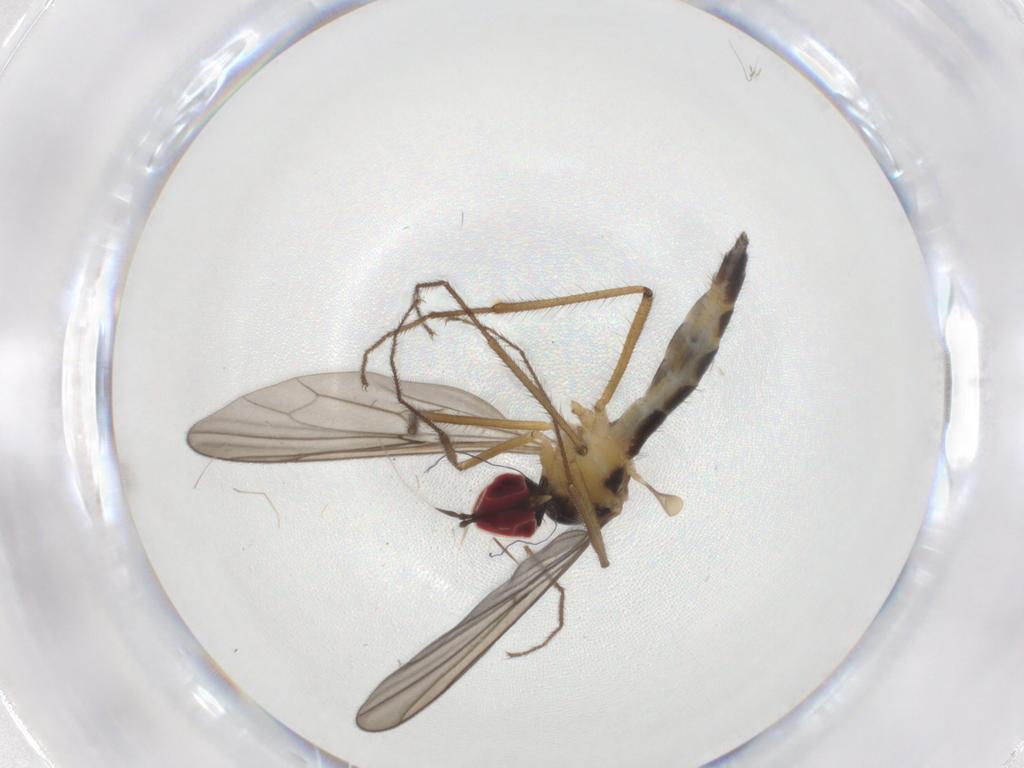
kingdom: Animalia
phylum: Arthropoda
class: Insecta
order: Diptera
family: Hybotidae
